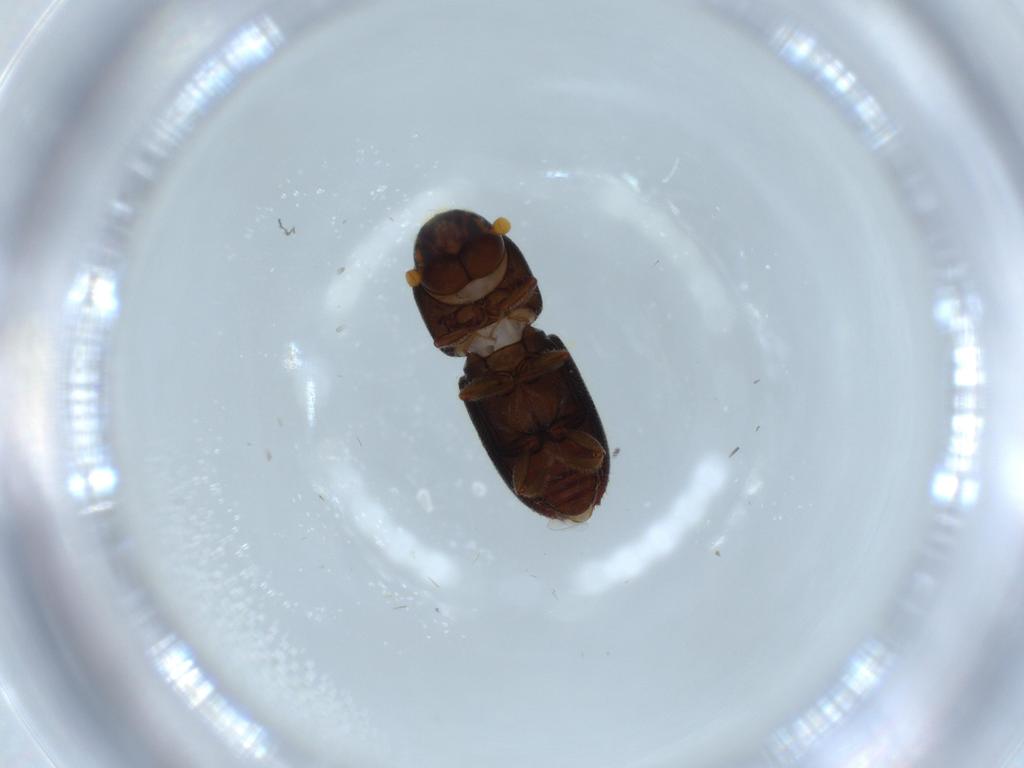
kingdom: Animalia
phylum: Arthropoda
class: Insecta
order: Coleoptera
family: Curculionidae
